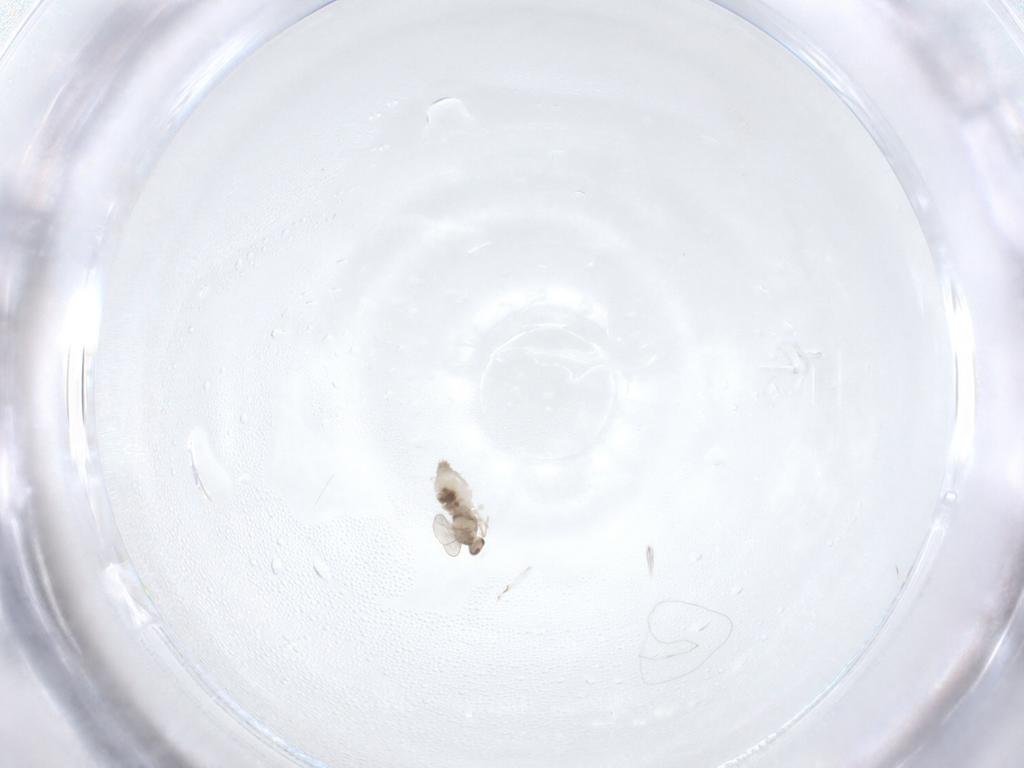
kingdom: Animalia
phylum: Arthropoda
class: Insecta
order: Diptera
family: Cecidomyiidae
